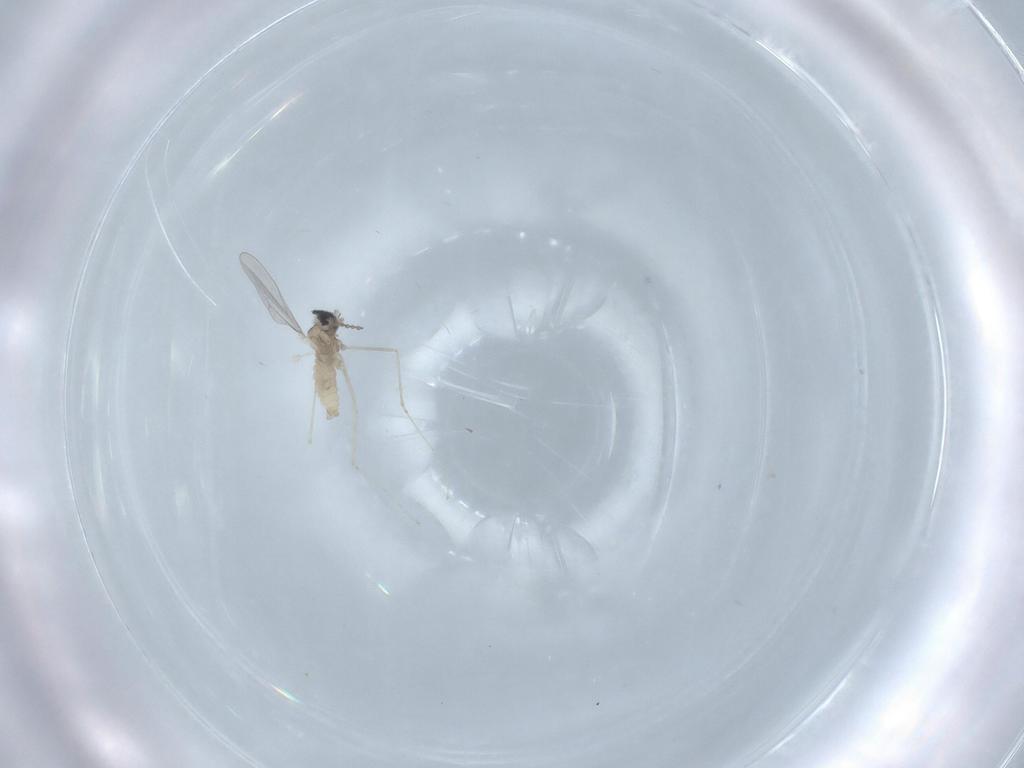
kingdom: Animalia
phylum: Arthropoda
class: Insecta
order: Diptera
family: Cecidomyiidae
